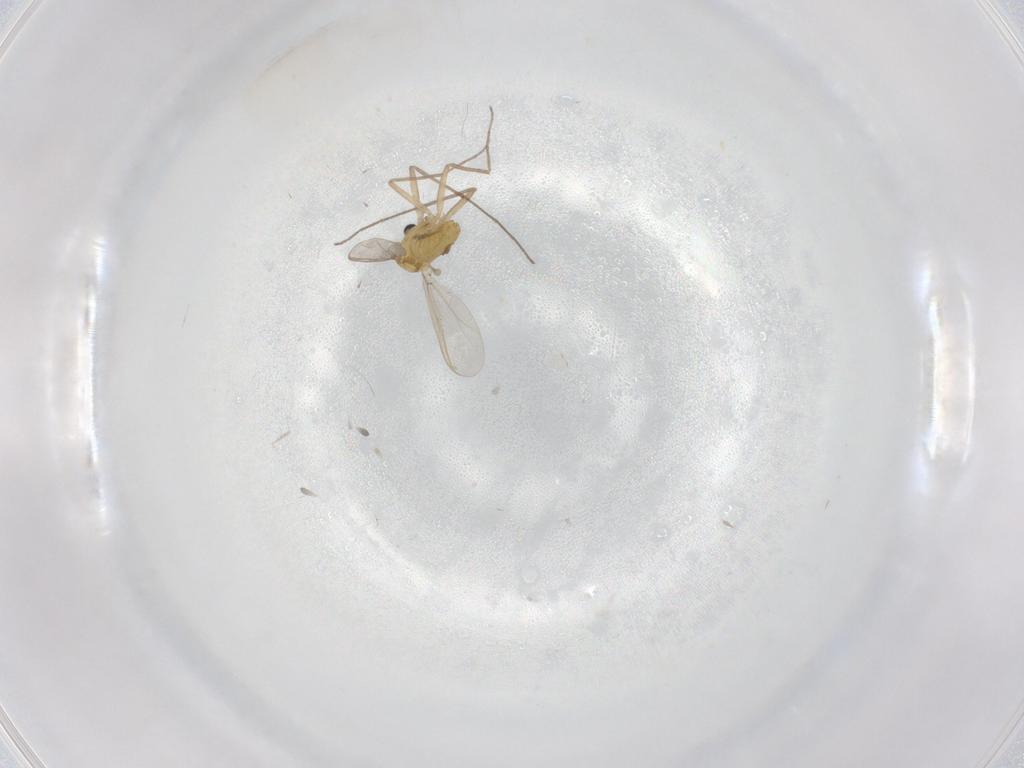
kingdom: Animalia
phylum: Arthropoda
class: Insecta
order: Diptera
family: Chironomidae
